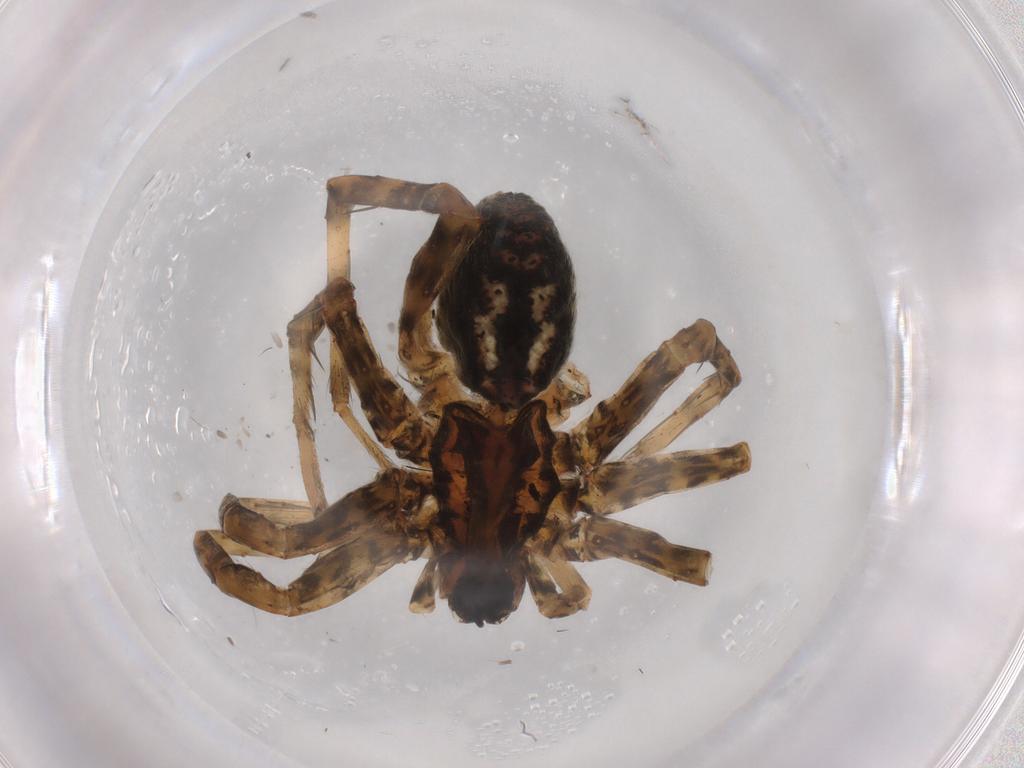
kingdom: Animalia
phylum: Arthropoda
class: Arachnida
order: Araneae
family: Lycosidae
